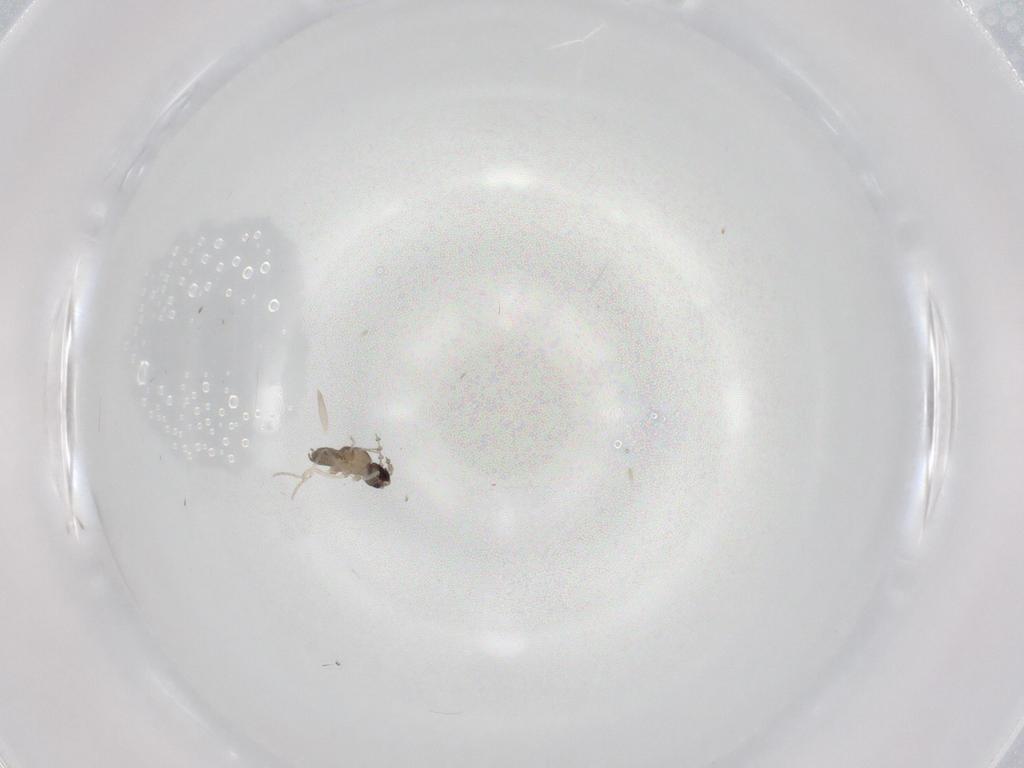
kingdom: Animalia
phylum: Arthropoda
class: Insecta
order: Diptera
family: Cecidomyiidae
